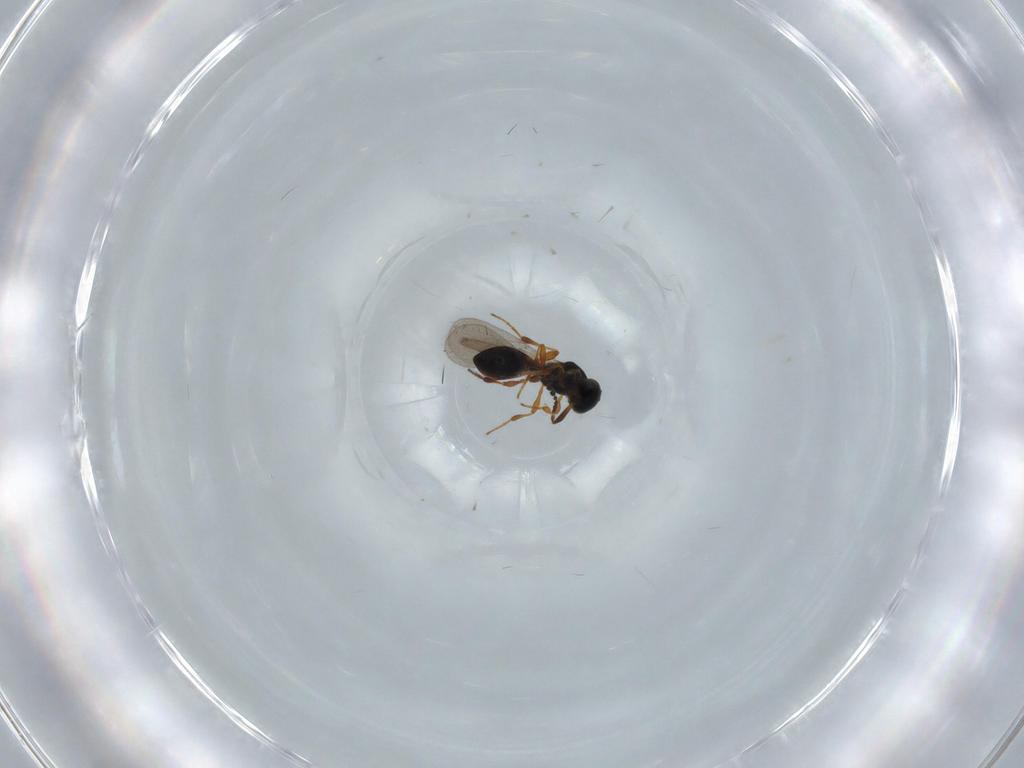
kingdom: Animalia
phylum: Arthropoda
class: Insecta
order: Hymenoptera
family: Platygastridae
